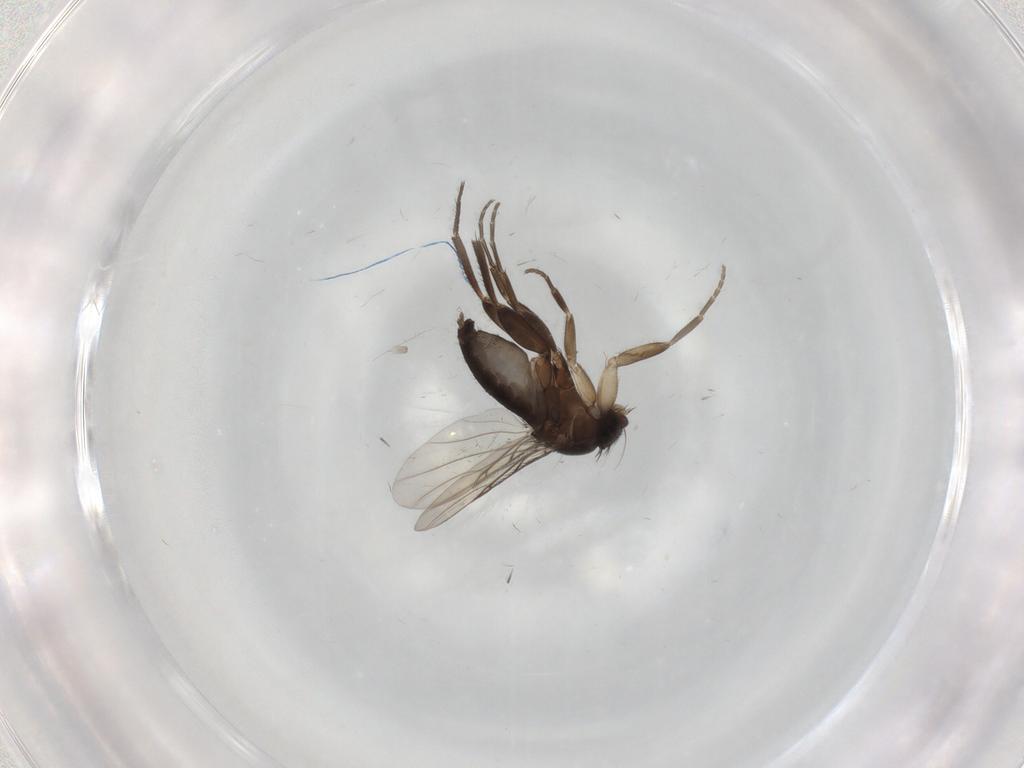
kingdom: Animalia
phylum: Arthropoda
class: Insecta
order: Diptera
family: Phoridae
